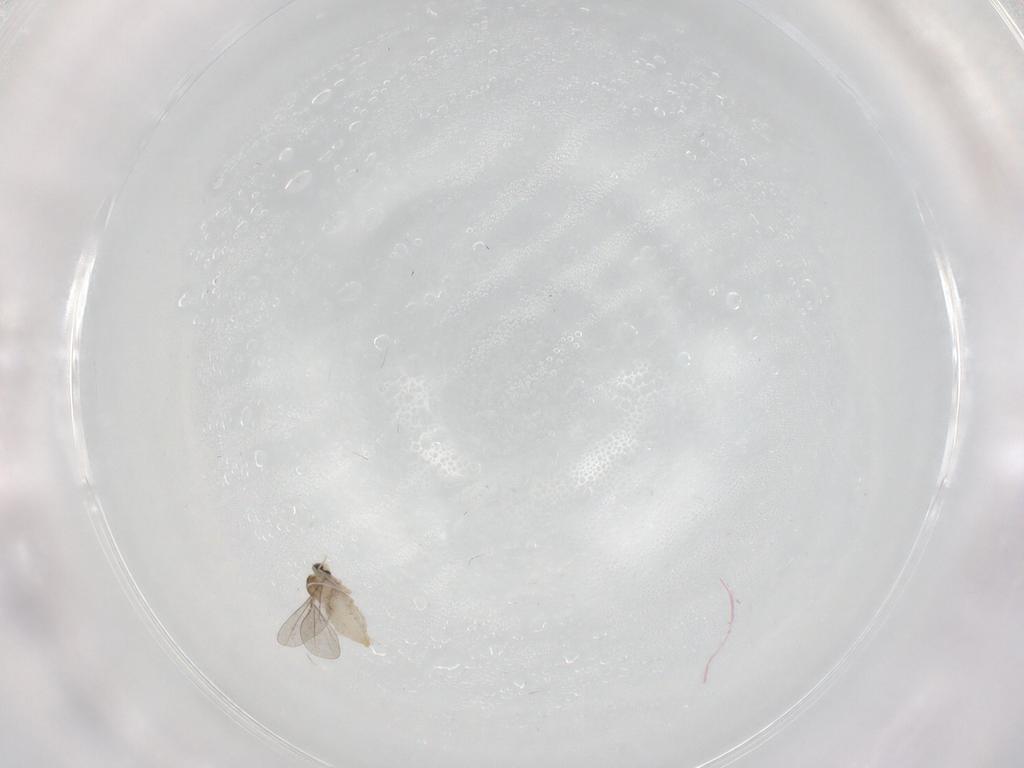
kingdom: Animalia
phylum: Arthropoda
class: Insecta
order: Diptera
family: Cecidomyiidae
